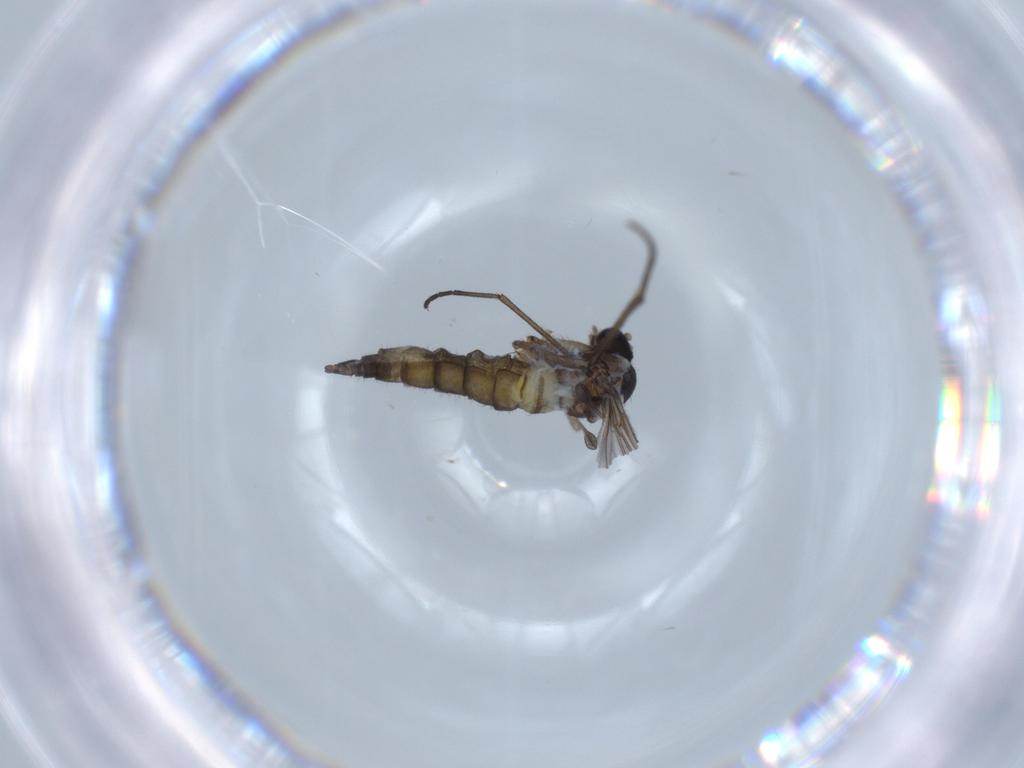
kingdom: Animalia
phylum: Arthropoda
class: Insecta
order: Diptera
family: Sciaridae
